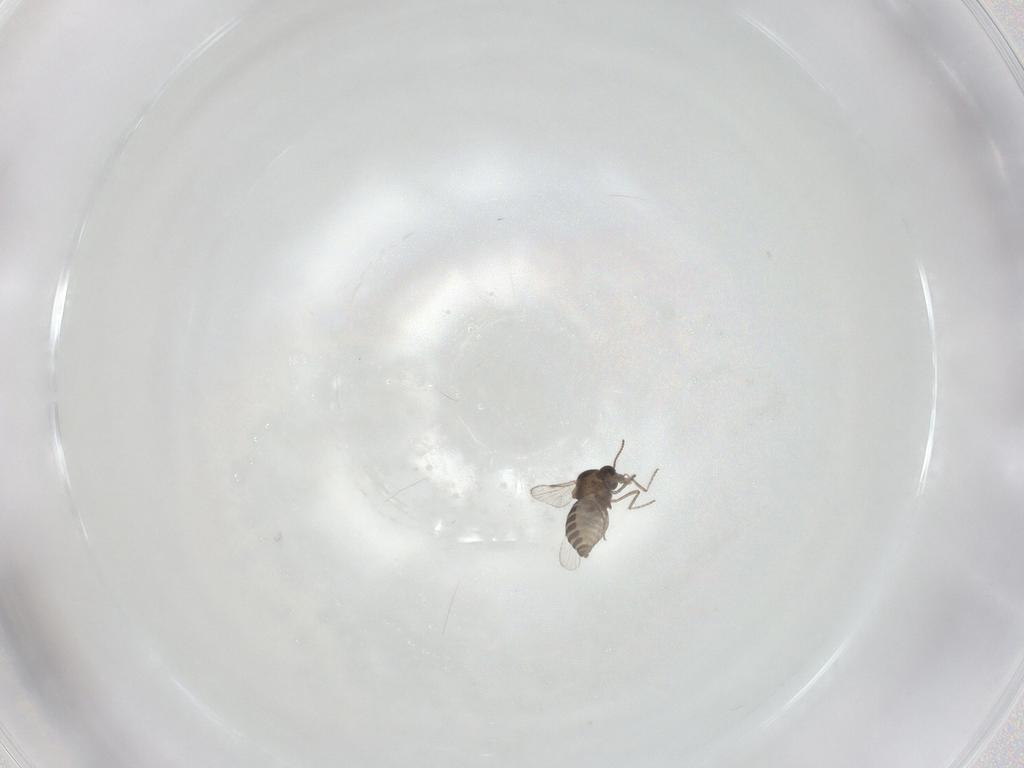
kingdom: Animalia
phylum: Arthropoda
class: Insecta
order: Diptera
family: Ceratopogonidae
